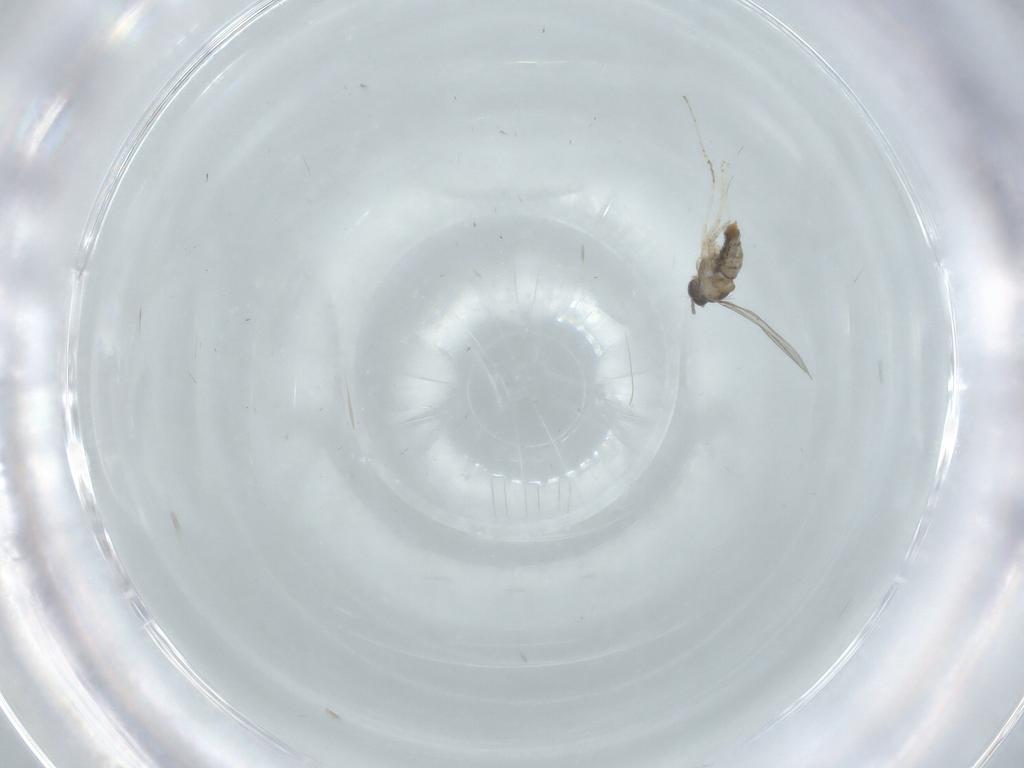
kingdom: Animalia
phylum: Arthropoda
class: Insecta
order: Diptera
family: Cecidomyiidae
